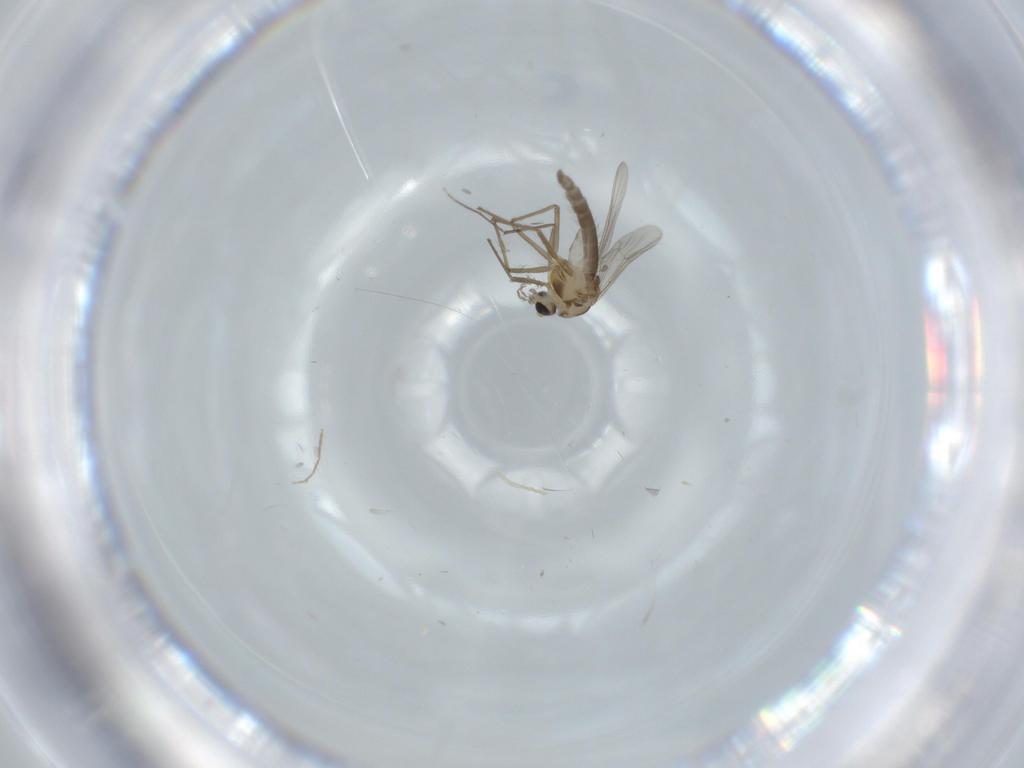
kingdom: Animalia
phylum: Arthropoda
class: Insecta
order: Diptera
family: Chironomidae
